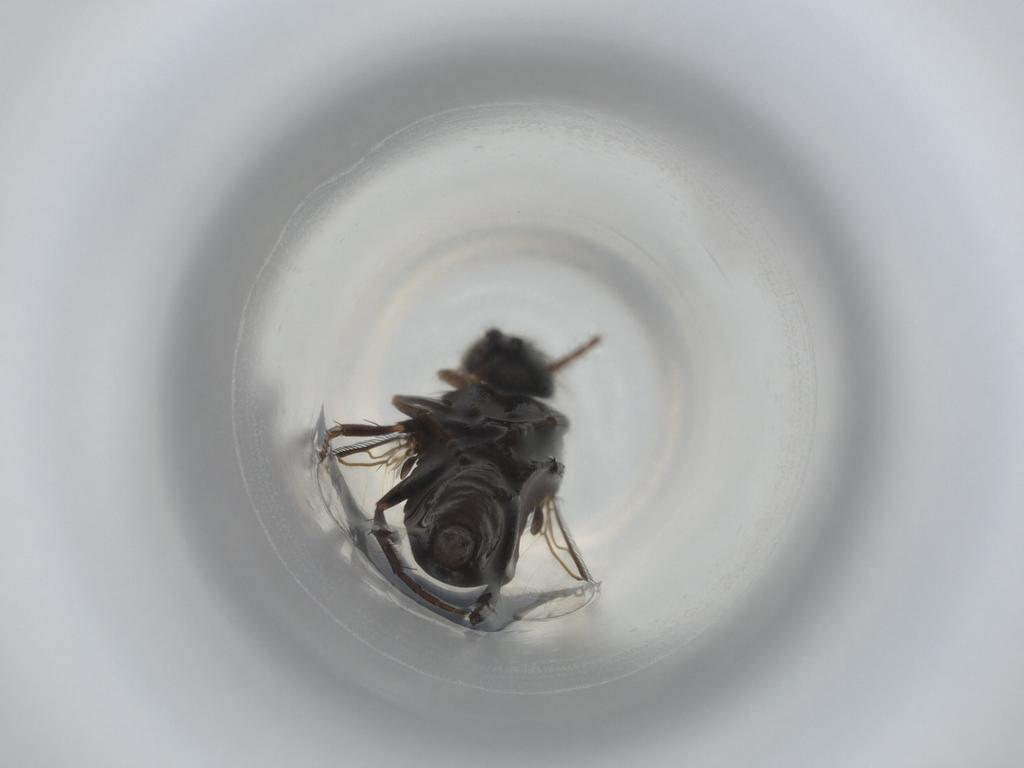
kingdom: Animalia
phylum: Arthropoda
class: Insecta
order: Diptera
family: Phoridae
